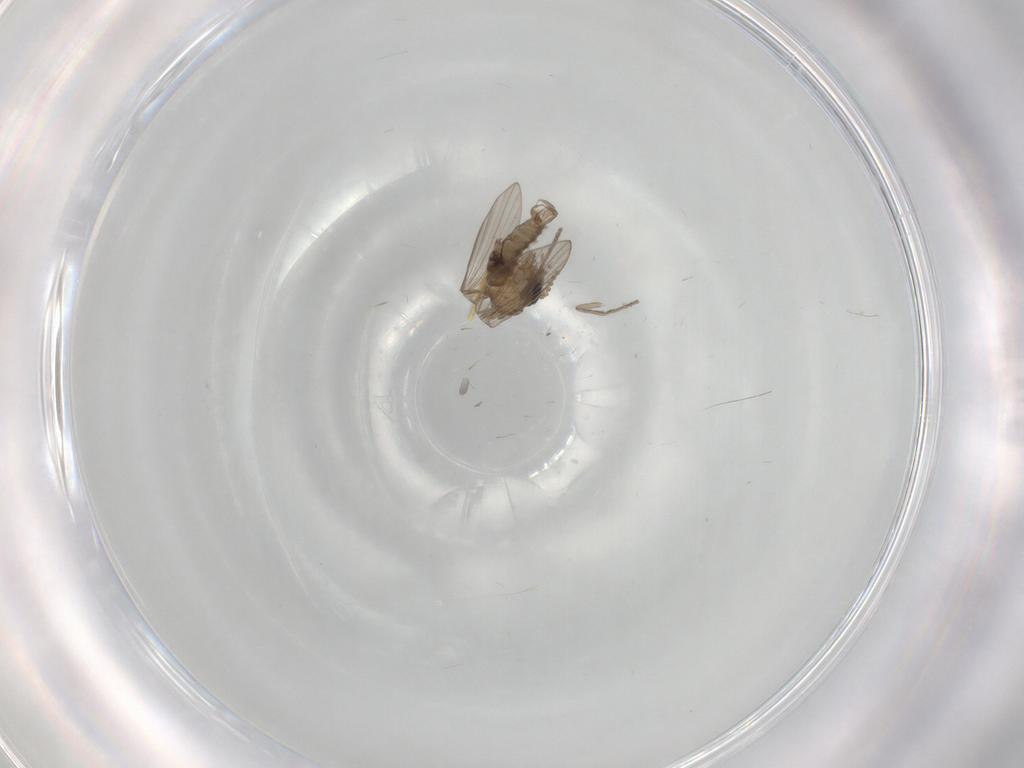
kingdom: Animalia
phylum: Arthropoda
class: Insecta
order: Diptera
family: Psychodidae
